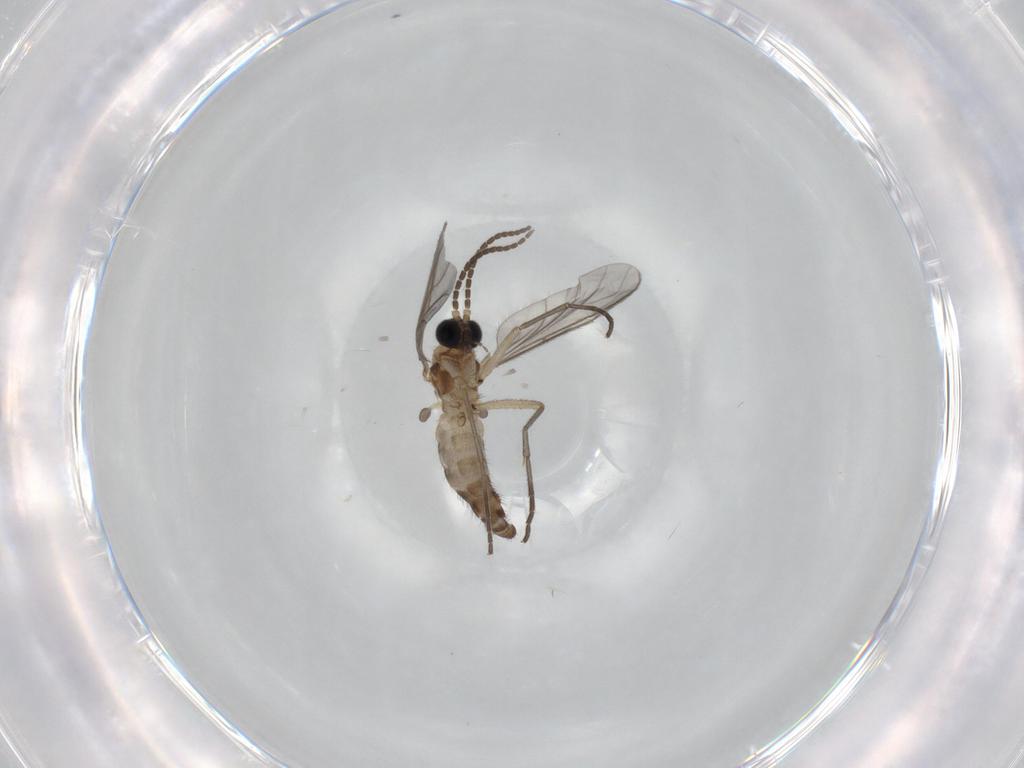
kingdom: Animalia
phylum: Arthropoda
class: Insecta
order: Diptera
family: Sciaridae
